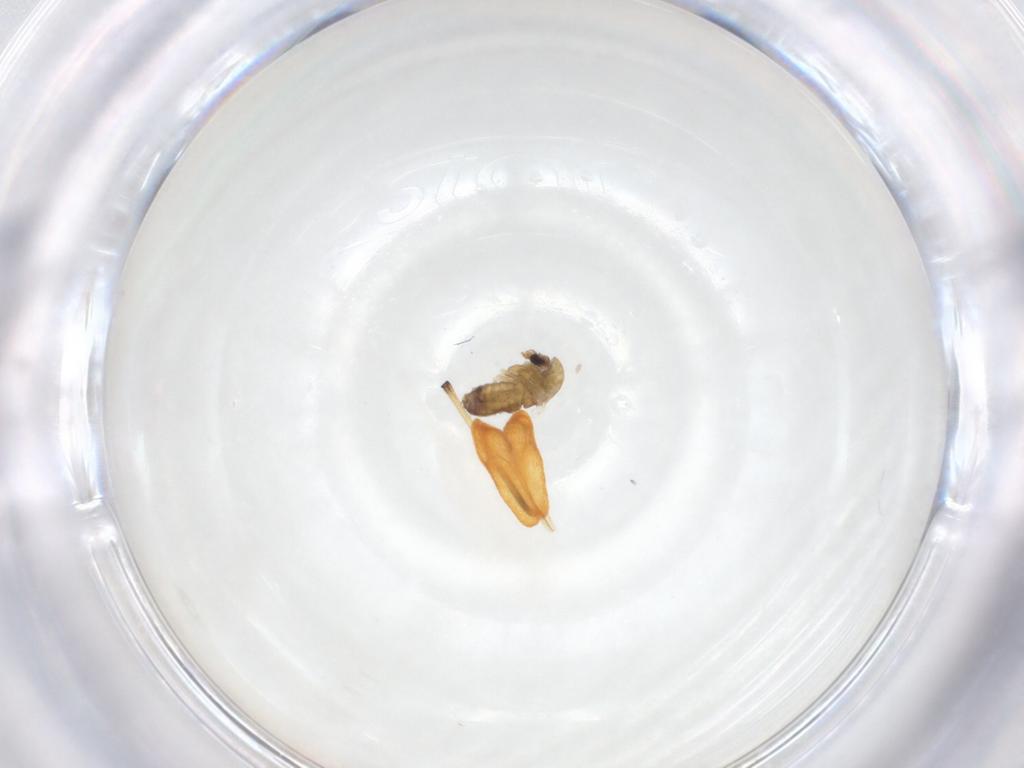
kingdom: Animalia
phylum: Arthropoda
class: Insecta
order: Diptera
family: Chironomidae
